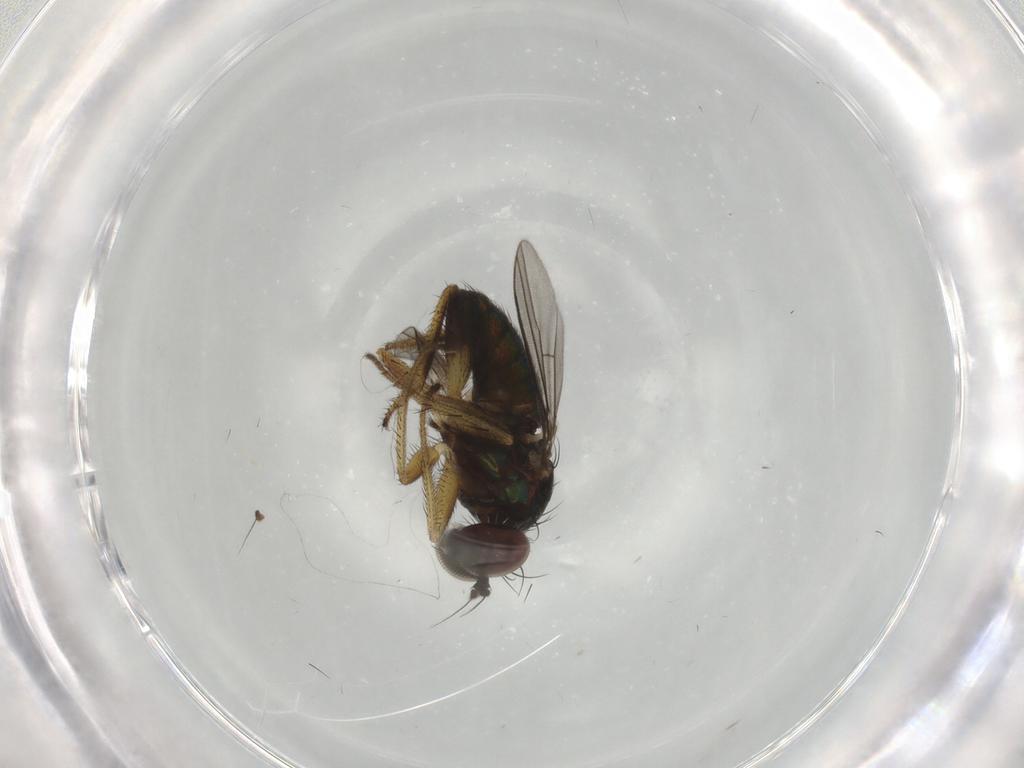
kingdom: Animalia
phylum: Arthropoda
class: Insecta
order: Diptera
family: Dolichopodidae
